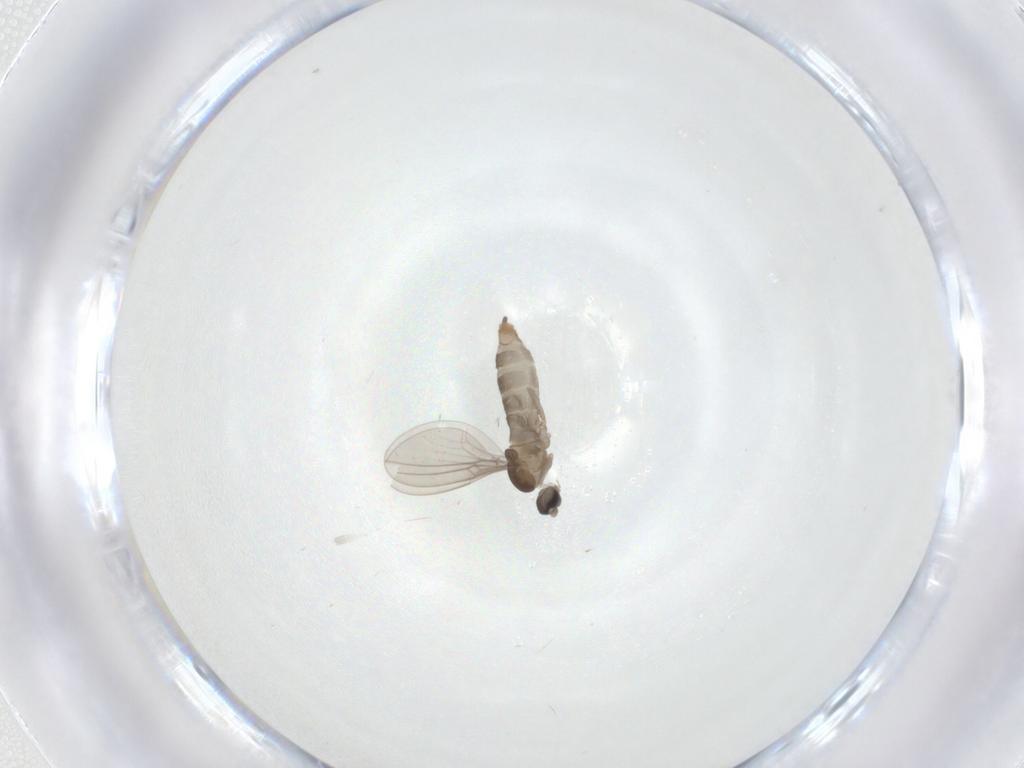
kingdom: Animalia
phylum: Arthropoda
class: Insecta
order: Diptera
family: Cecidomyiidae
